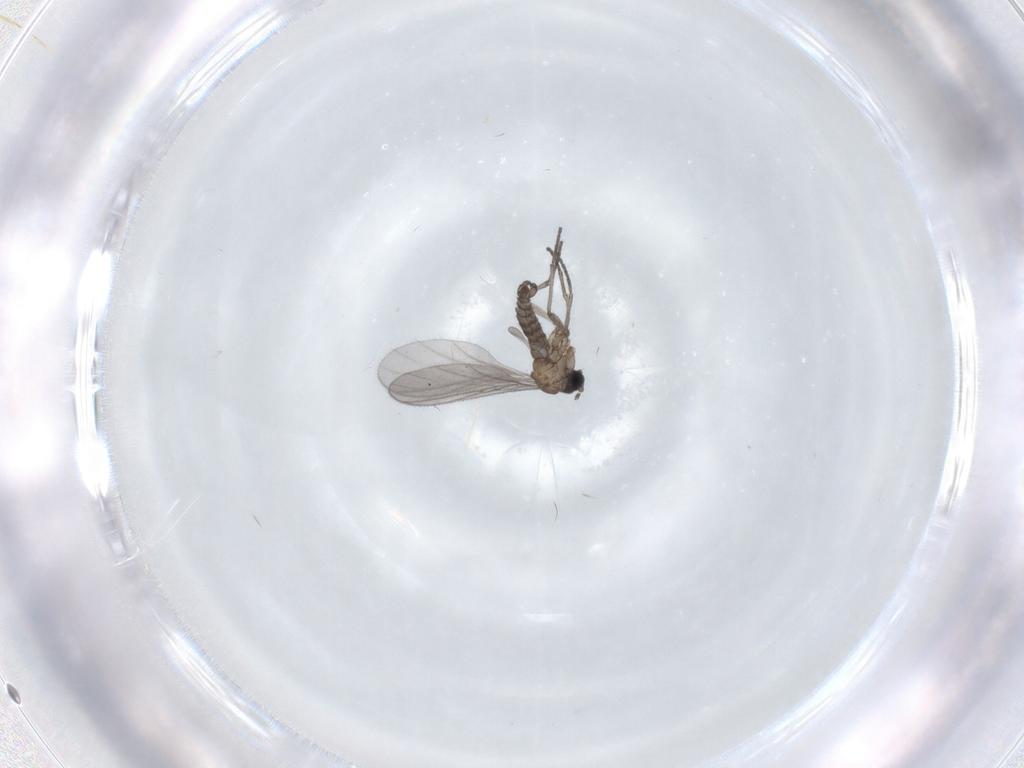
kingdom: Animalia
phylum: Arthropoda
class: Insecta
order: Diptera
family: Sciaridae
